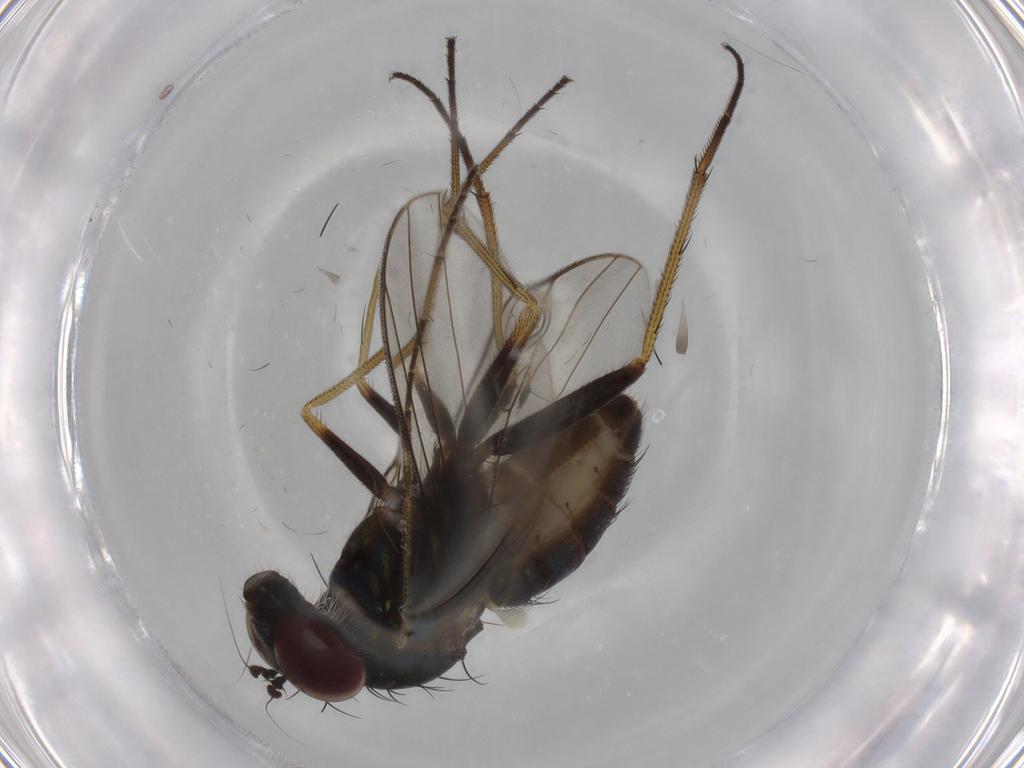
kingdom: Animalia
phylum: Arthropoda
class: Insecta
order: Diptera
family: Dolichopodidae
